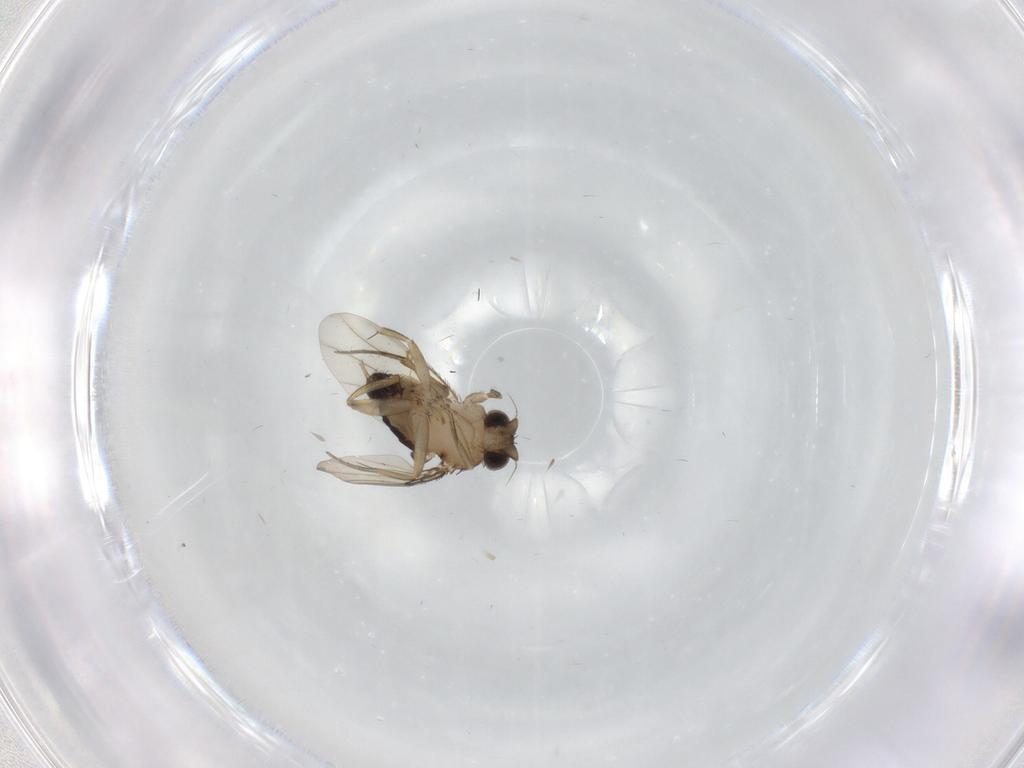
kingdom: Animalia
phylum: Arthropoda
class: Insecta
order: Diptera
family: Phoridae
